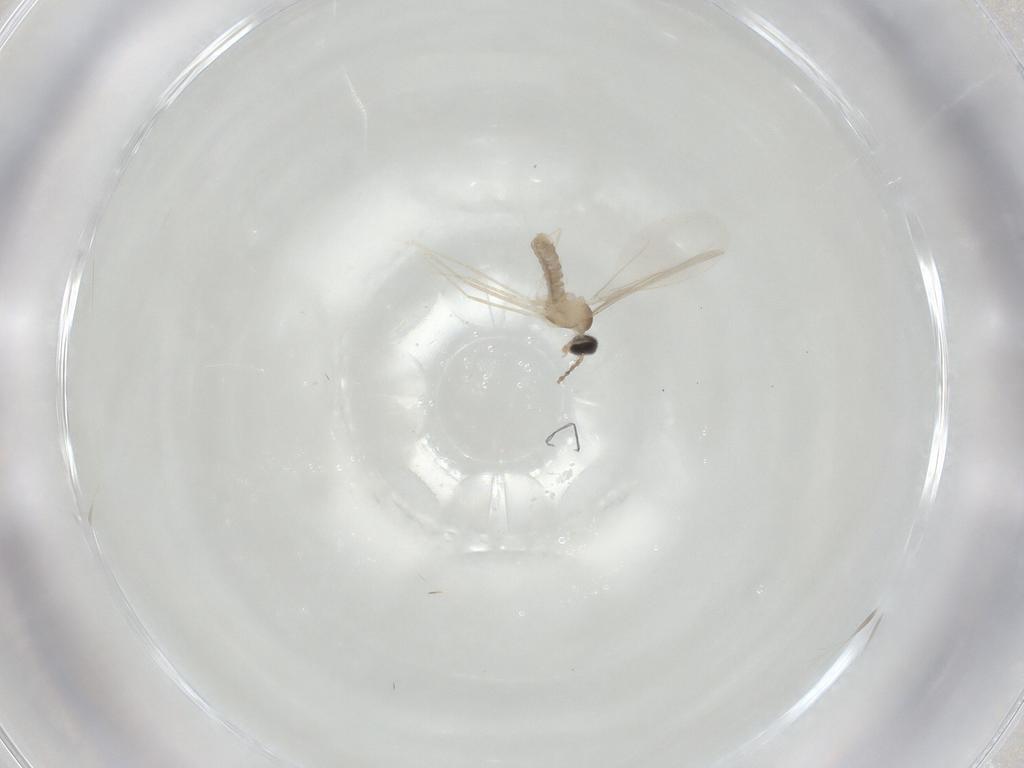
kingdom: Animalia
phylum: Arthropoda
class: Insecta
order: Diptera
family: Cecidomyiidae
